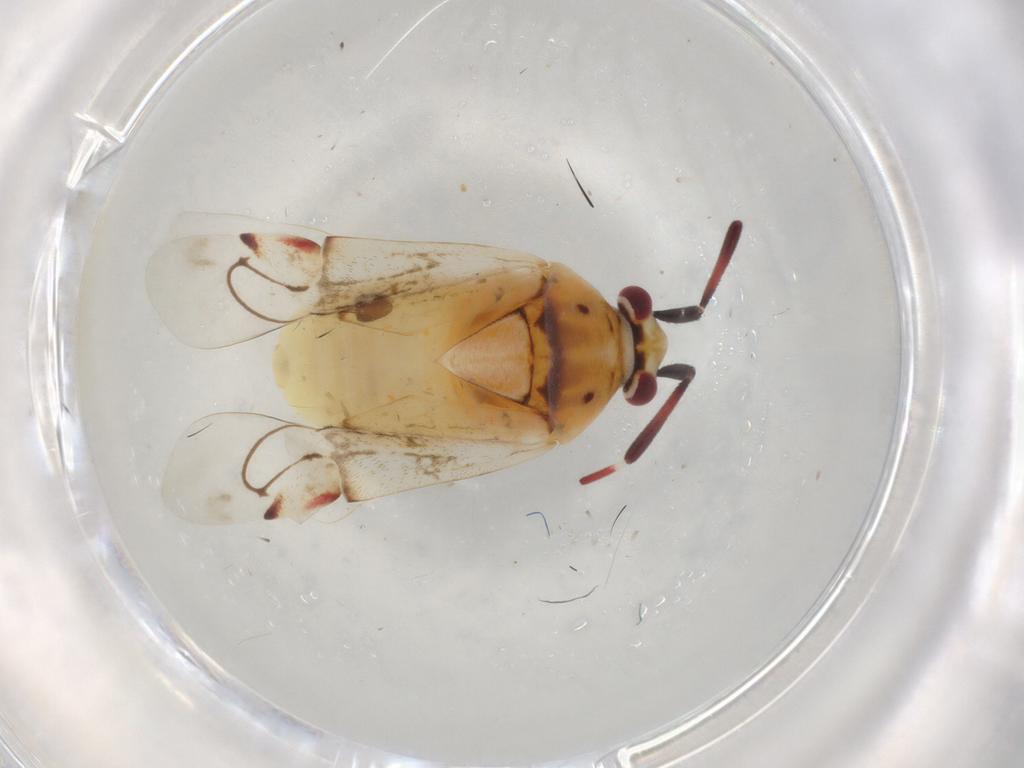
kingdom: Animalia
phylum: Arthropoda
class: Insecta
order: Hemiptera
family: Miridae
